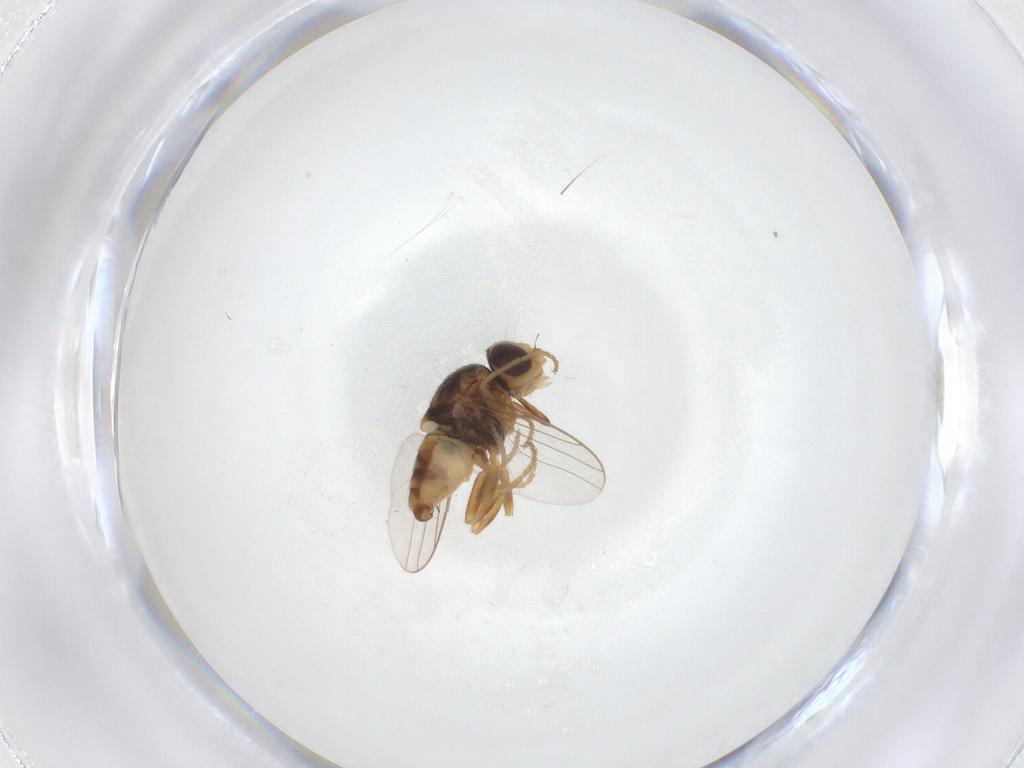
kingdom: Animalia
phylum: Arthropoda
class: Insecta
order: Diptera
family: Chloropidae
